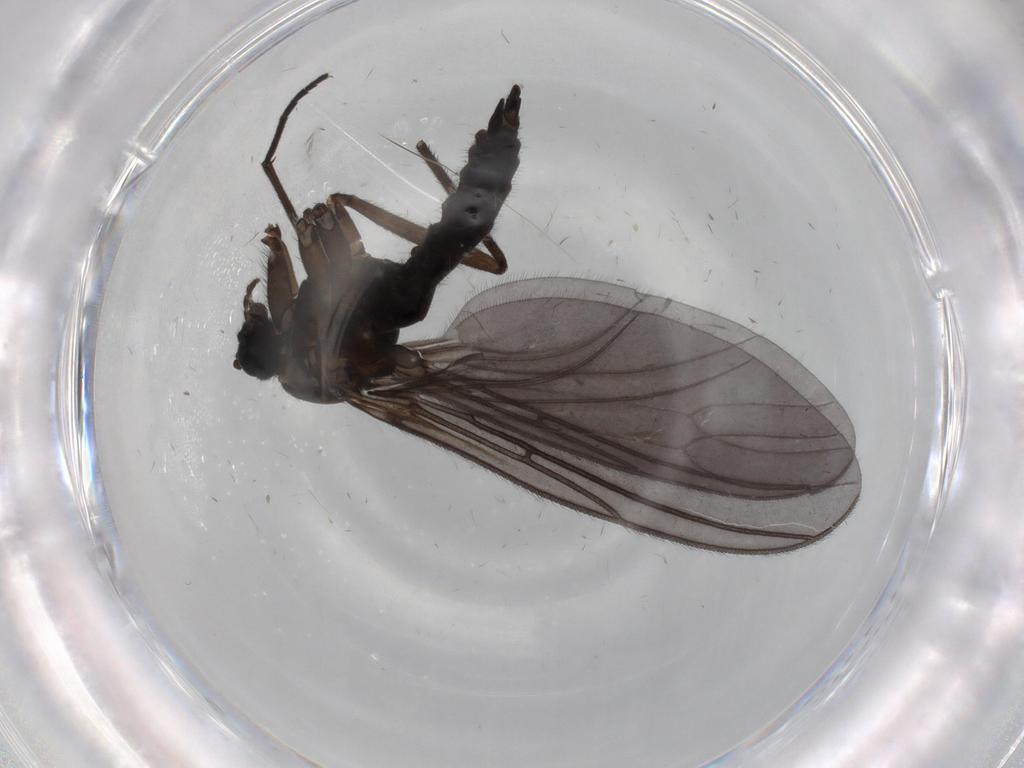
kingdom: Animalia
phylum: Arthropoda
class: Insecta
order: Diptera
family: Sciaridae
